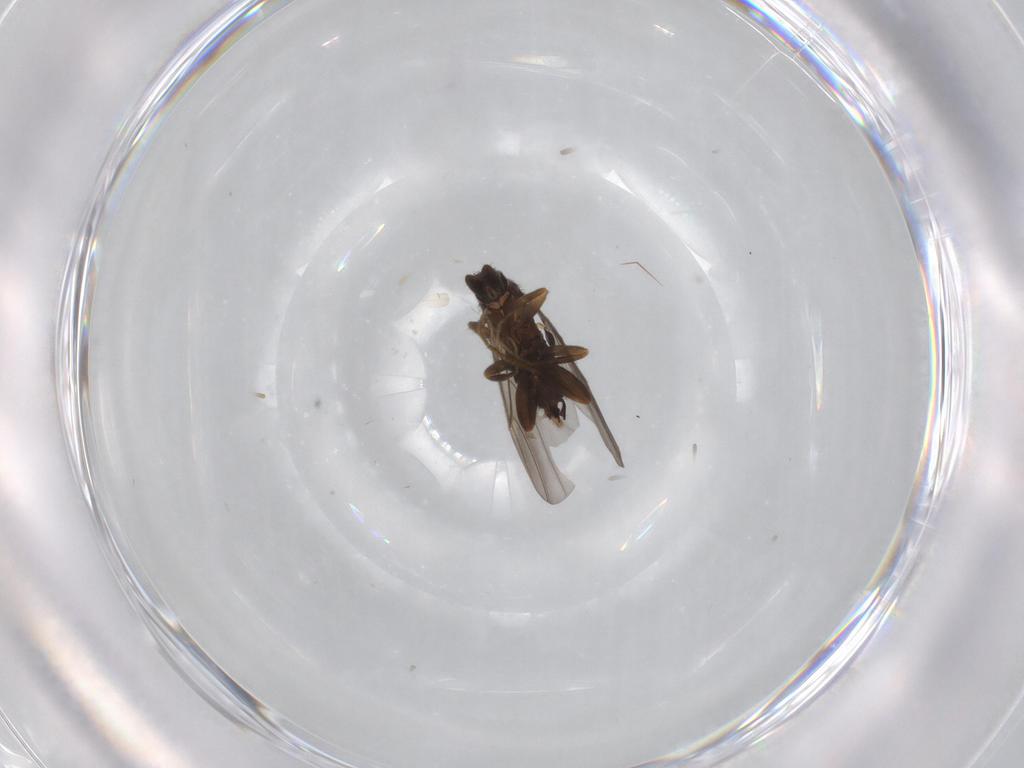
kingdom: Animalia
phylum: Arthropoda
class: Insecta
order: Diptera
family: Phoridae
